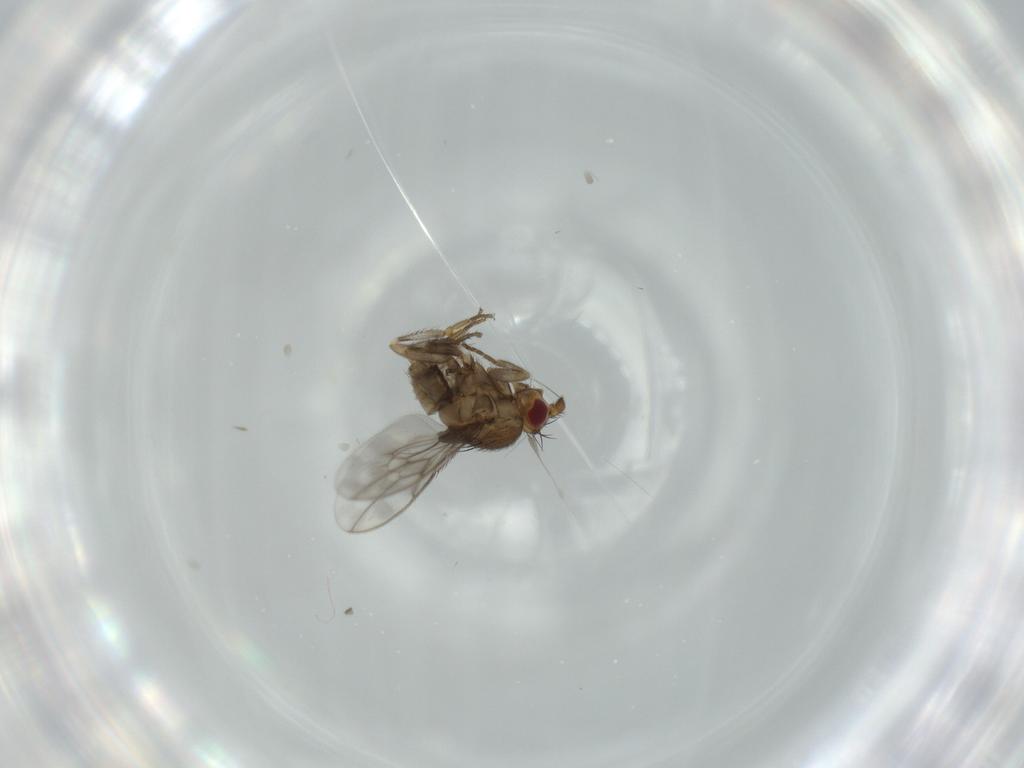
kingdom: Animalia
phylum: Arthropoda
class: Insecta
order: Diptera
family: Sphaeroceridae
